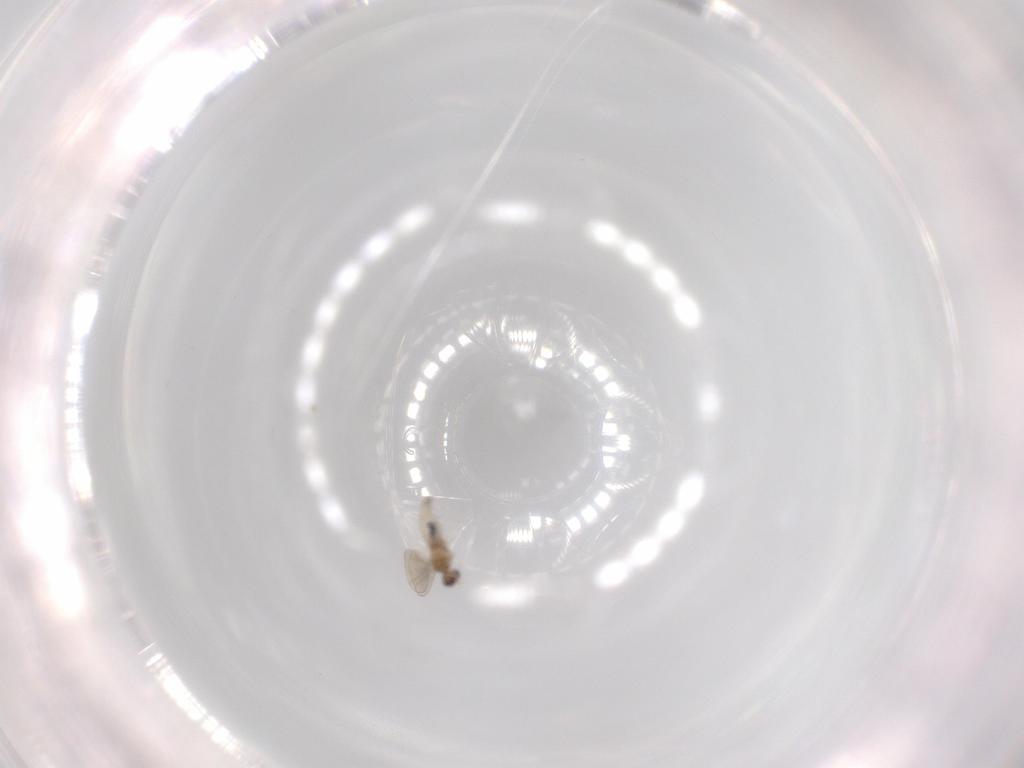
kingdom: Animalia
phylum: Arthropoda
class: Insecta
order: Diptera
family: Cecidomyiidae
